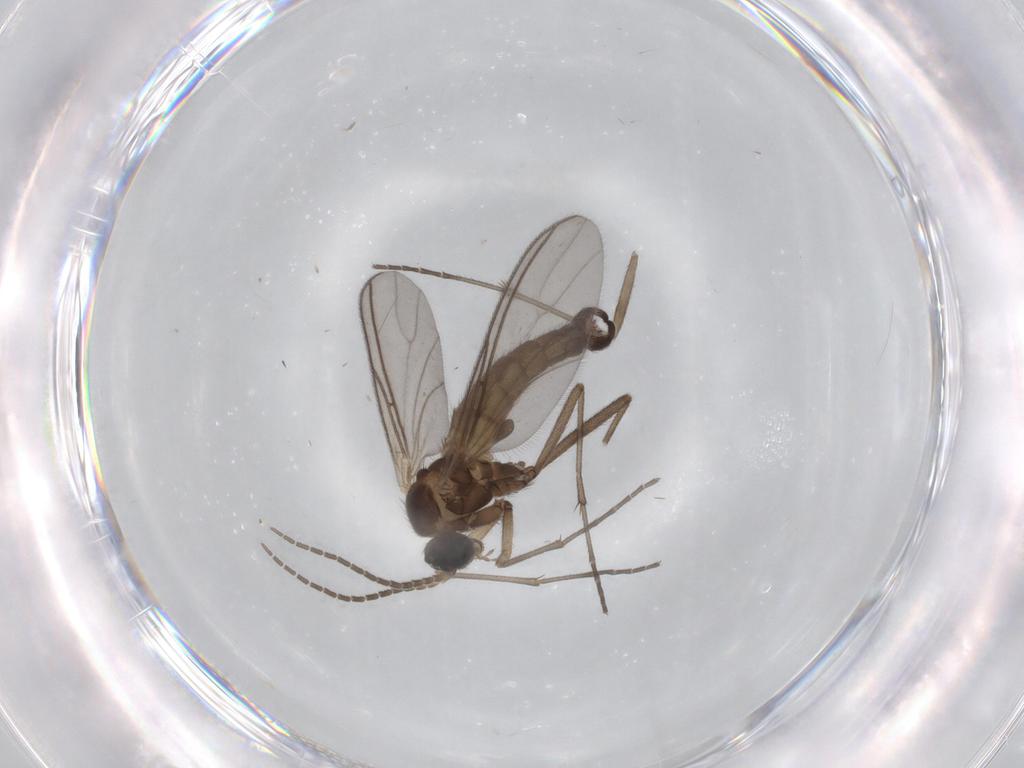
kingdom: Animalia
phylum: Arthropoda
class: Insecta
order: Diptera
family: Sciaridae
